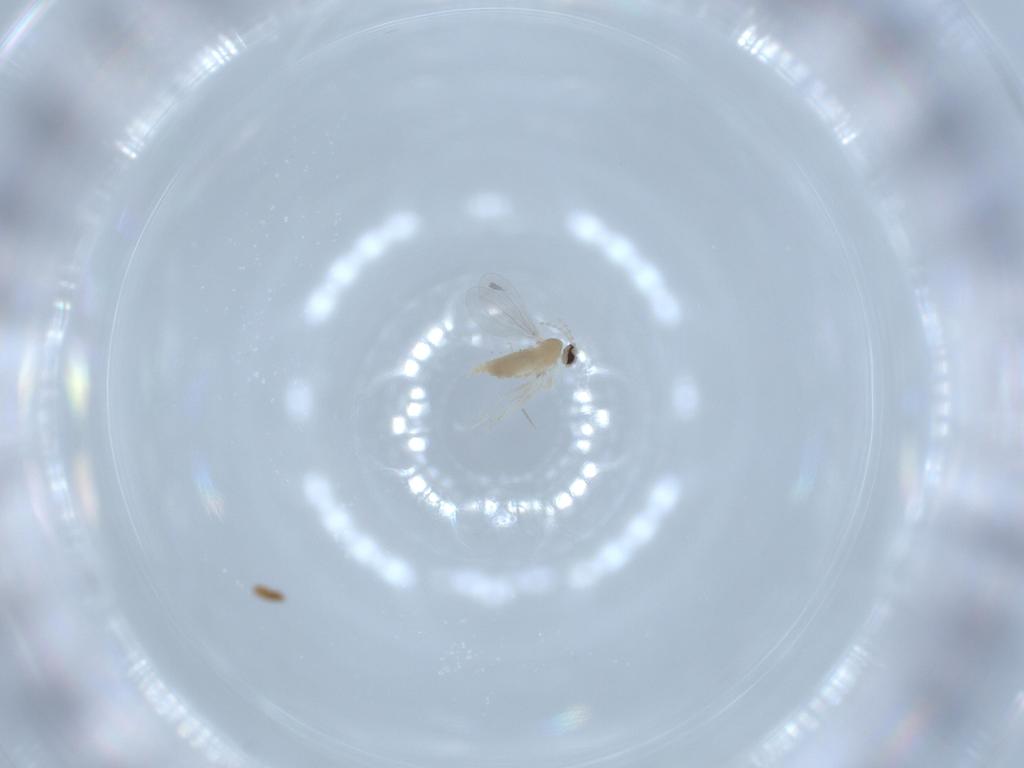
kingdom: Animalia
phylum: Arthropoda
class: Insecta
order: Diptera
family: Cecidomyiidae
